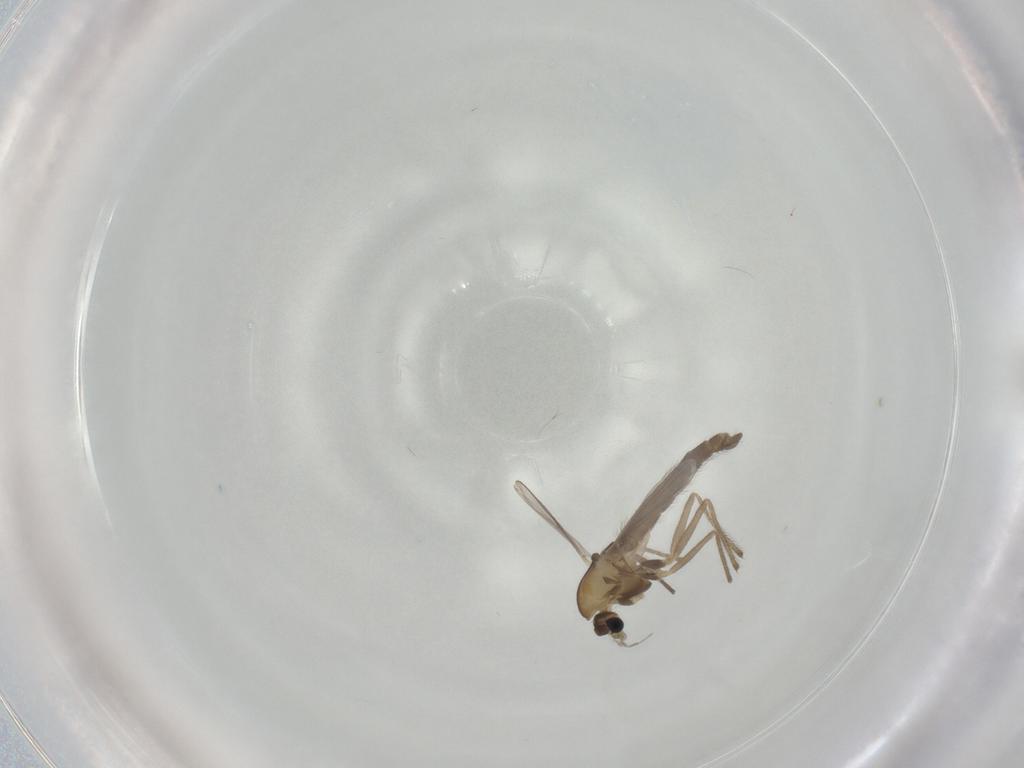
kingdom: Animalia
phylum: Arthropoda
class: Insecta
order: Diptera
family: Chironomidae
